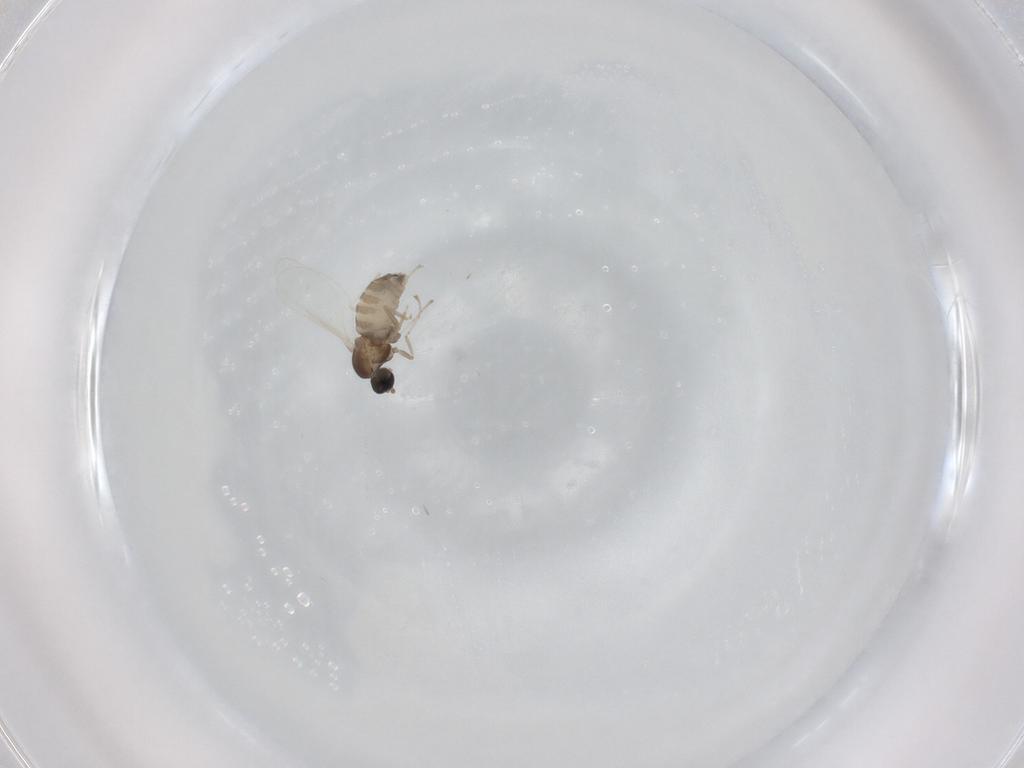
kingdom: Animalia
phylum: Arthropoda
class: Insecta
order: Diptera
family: Cecidomyiidae
